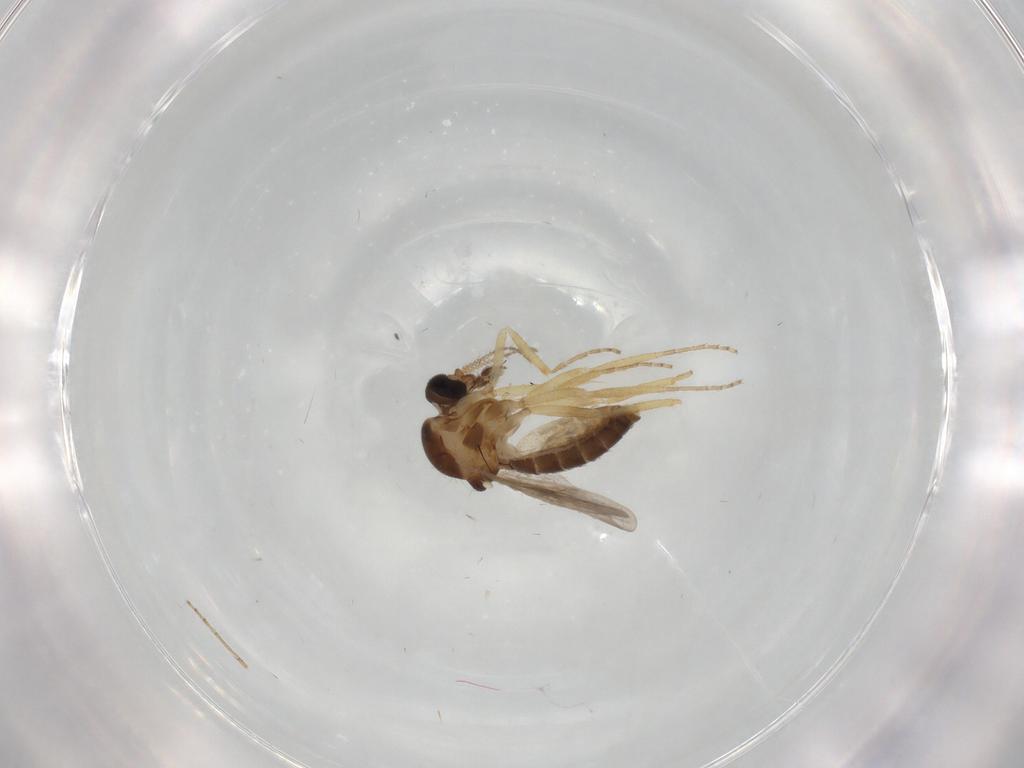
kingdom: Animalia
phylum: Arthropoda
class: Insecta
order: Diptera
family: Ceratopogonidae
